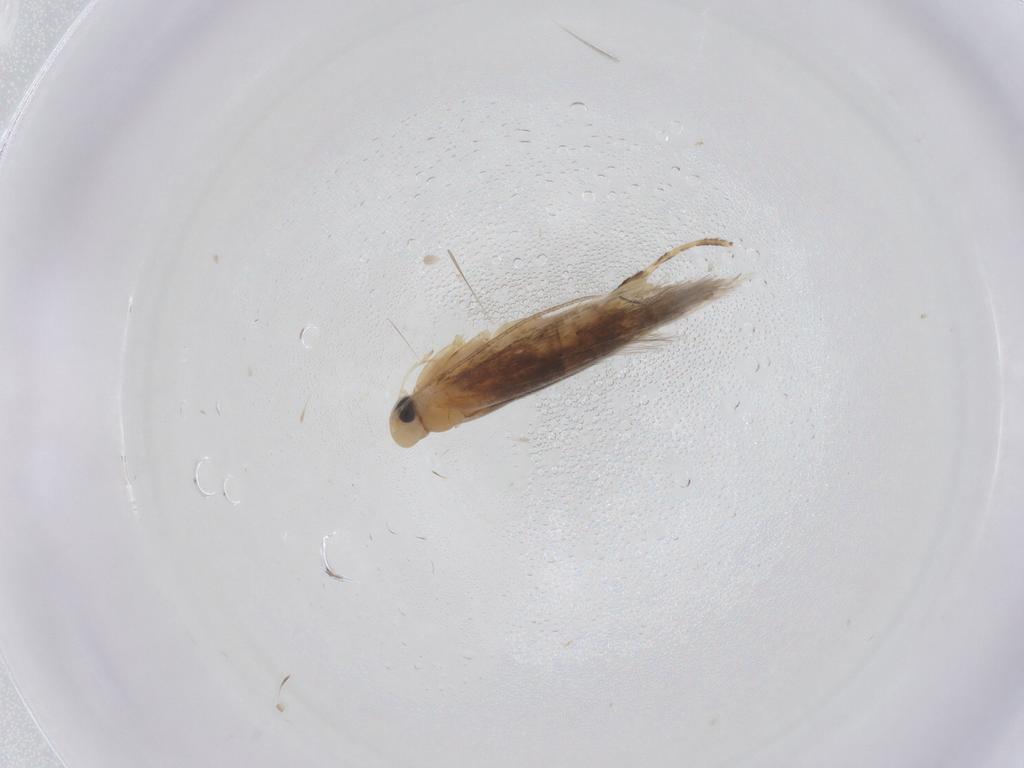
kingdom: Animalia
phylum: Arthropoda
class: Insecta
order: Lepidoptera
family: Tischeriidae
